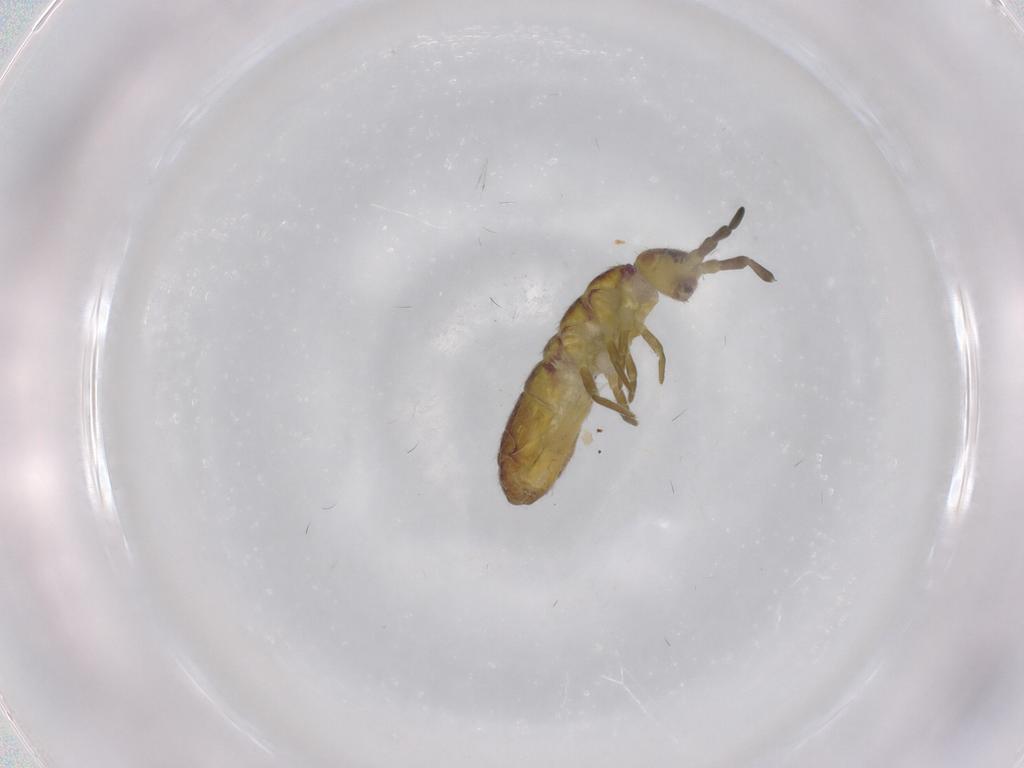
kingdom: Animalia
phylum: Arthropoda
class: Collembola
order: Entomobryomorpha
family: Isotomidae
